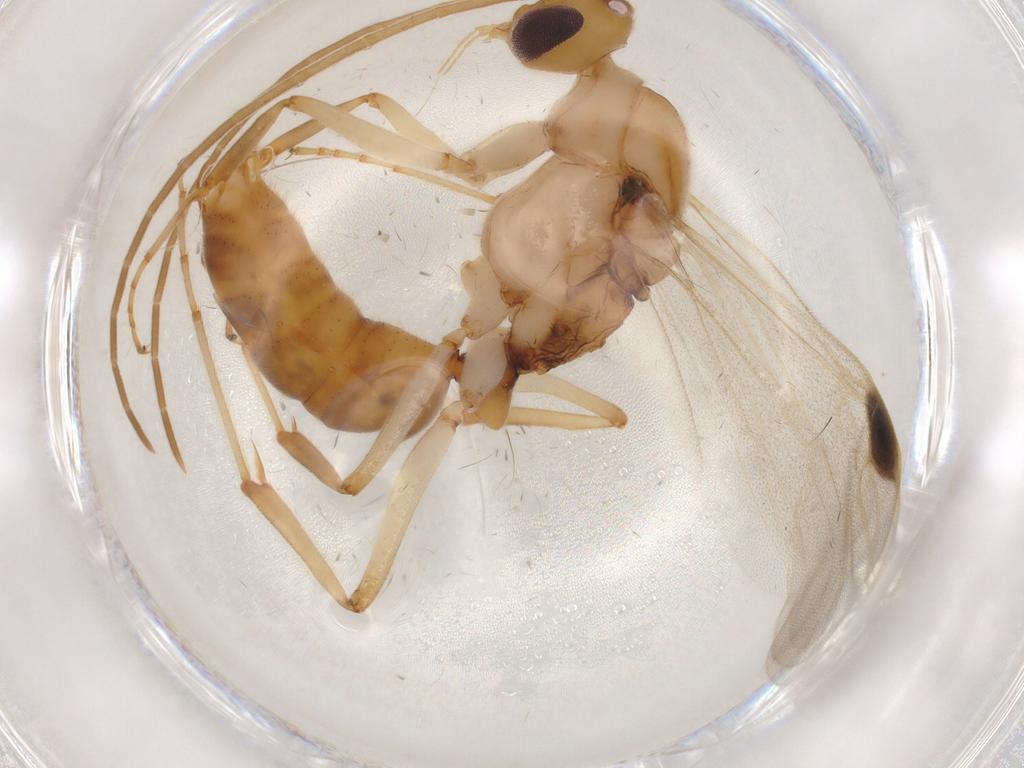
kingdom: Animalia
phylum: Arthropoda
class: Insecta
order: Hymenoptera
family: Formicidae
